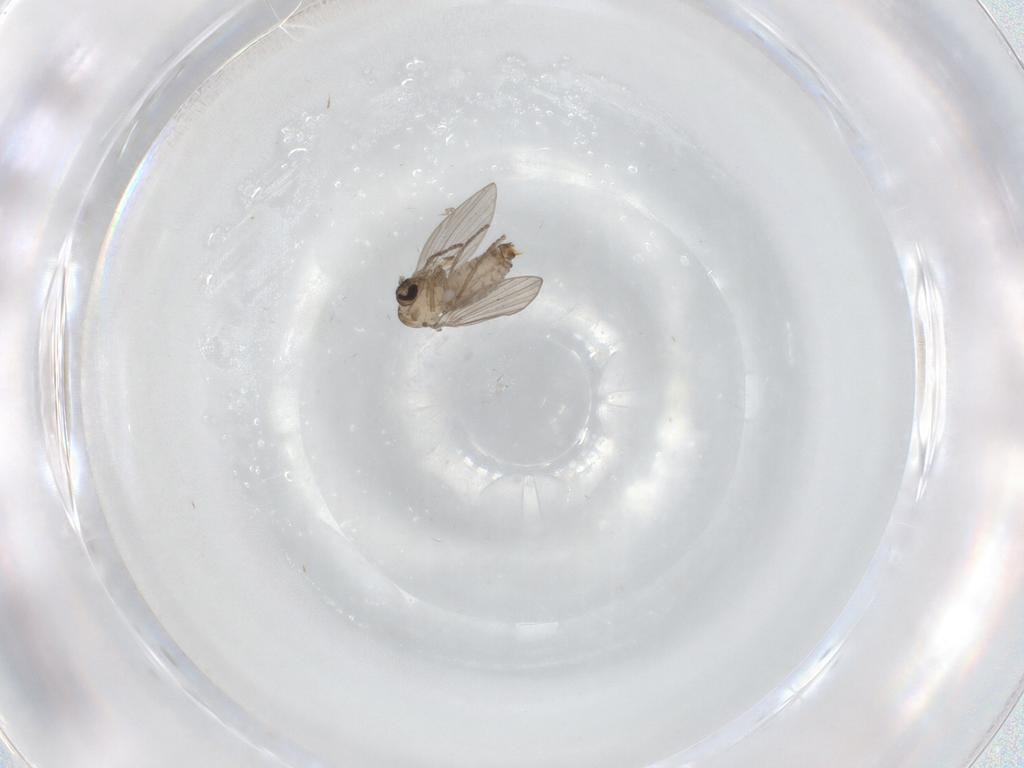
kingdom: Animalia
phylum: Arthropoda
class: Insecta
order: Diptera
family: Psychodidae
